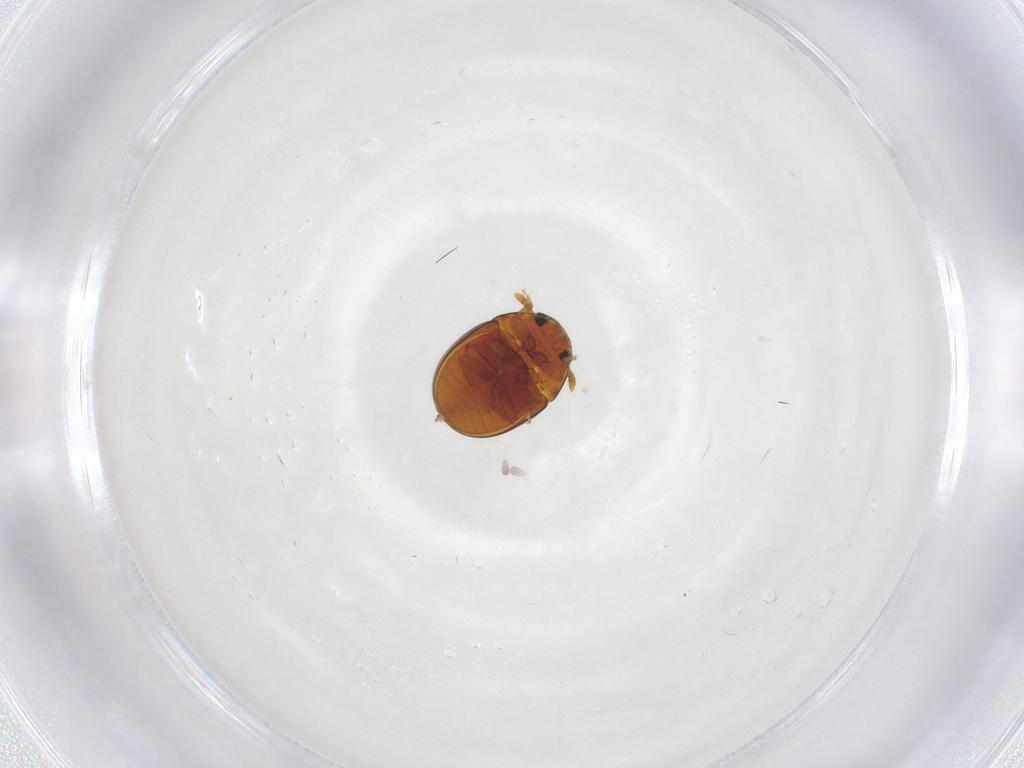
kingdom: Animalia
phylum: Arthropoda
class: Insecta
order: Coleoptera
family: Phalacridae
